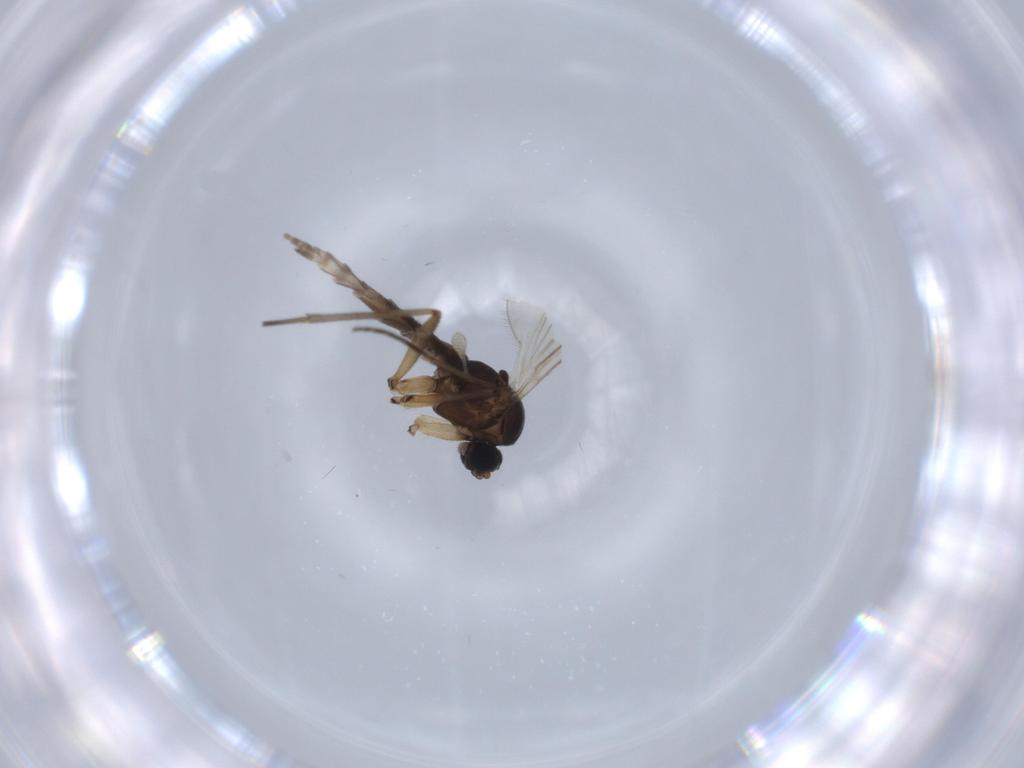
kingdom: Animalia
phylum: Arthropoda
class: Insecta
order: Diptera
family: Sciaridae
